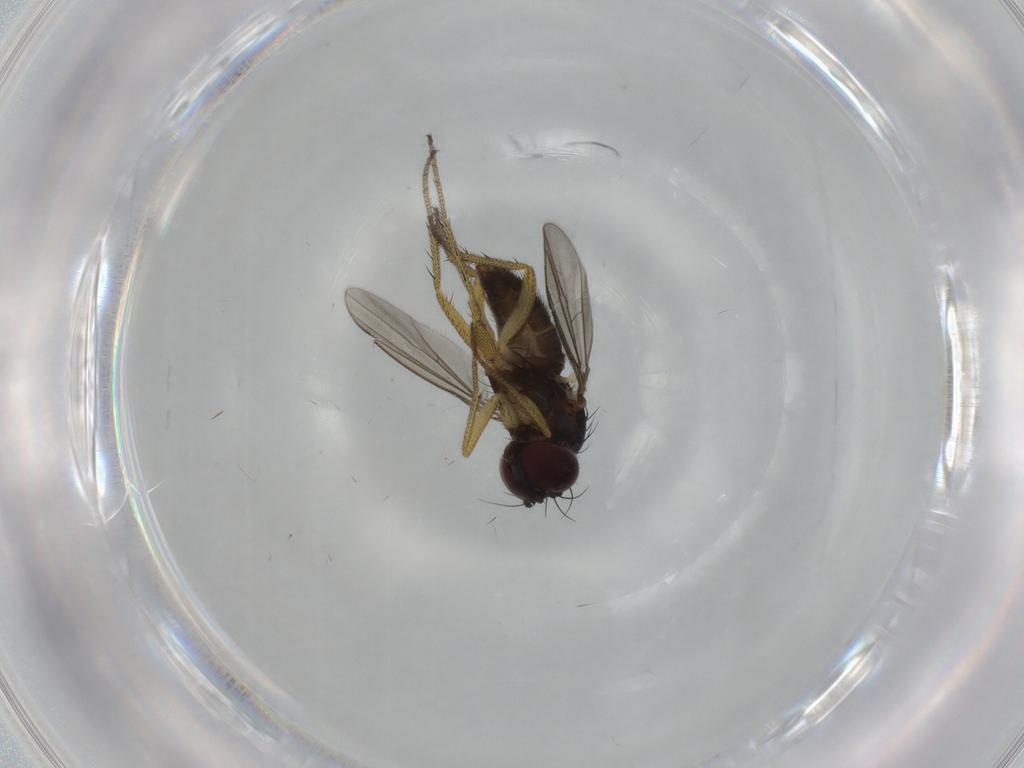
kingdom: Animalia
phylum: Arthropoda
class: Insecta
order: Diptera
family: Dolichopodidae
